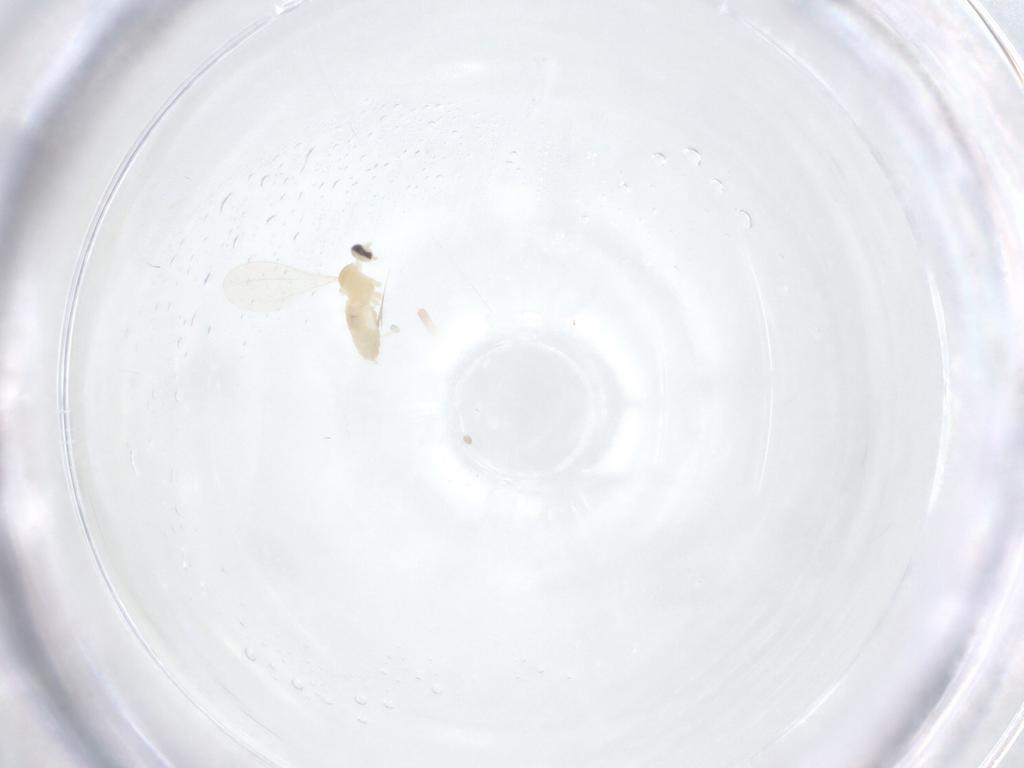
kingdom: Animalia
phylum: Arthropoda
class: Insecta
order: Diptera
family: Cecidomyiidae
